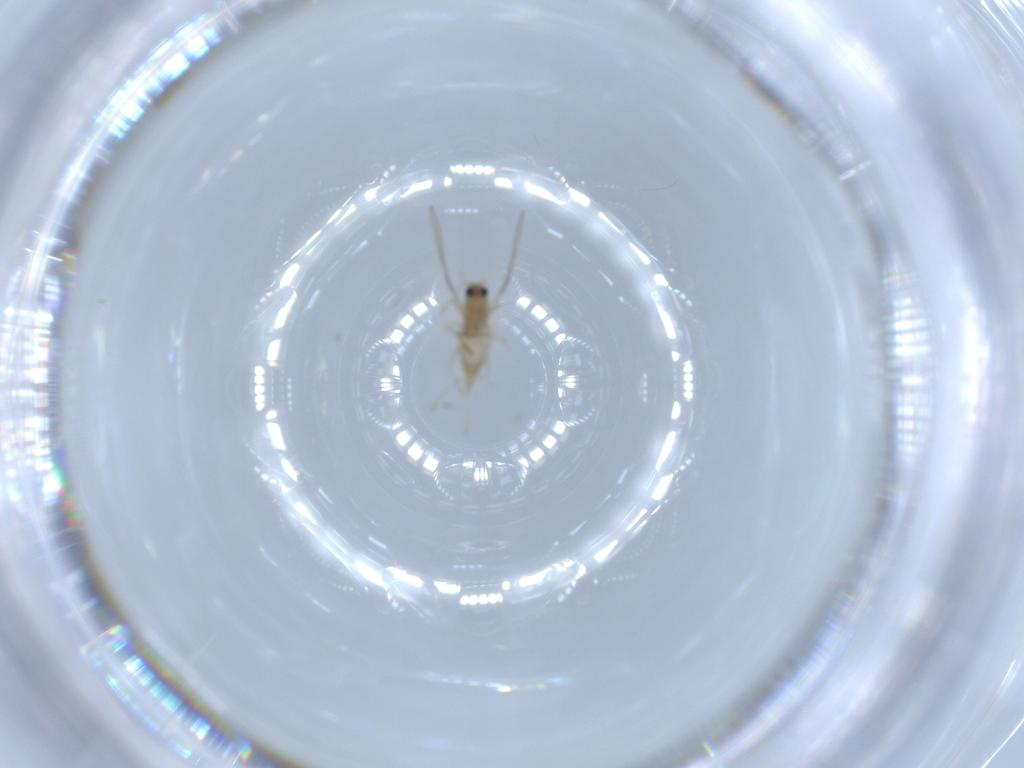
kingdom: Animalia
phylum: Arthropoda
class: Insecta
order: Diptera
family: Cecidomyiidae
